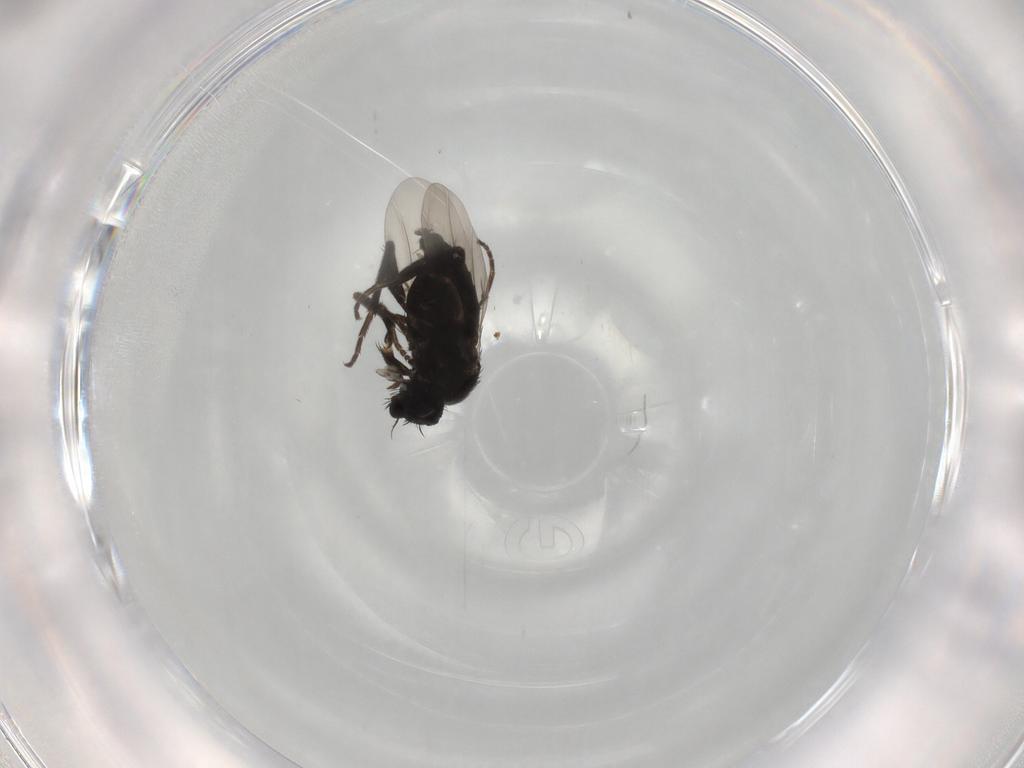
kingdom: Animalia
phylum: Arthropoda
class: Insecta
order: Diptera
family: Phoridae
